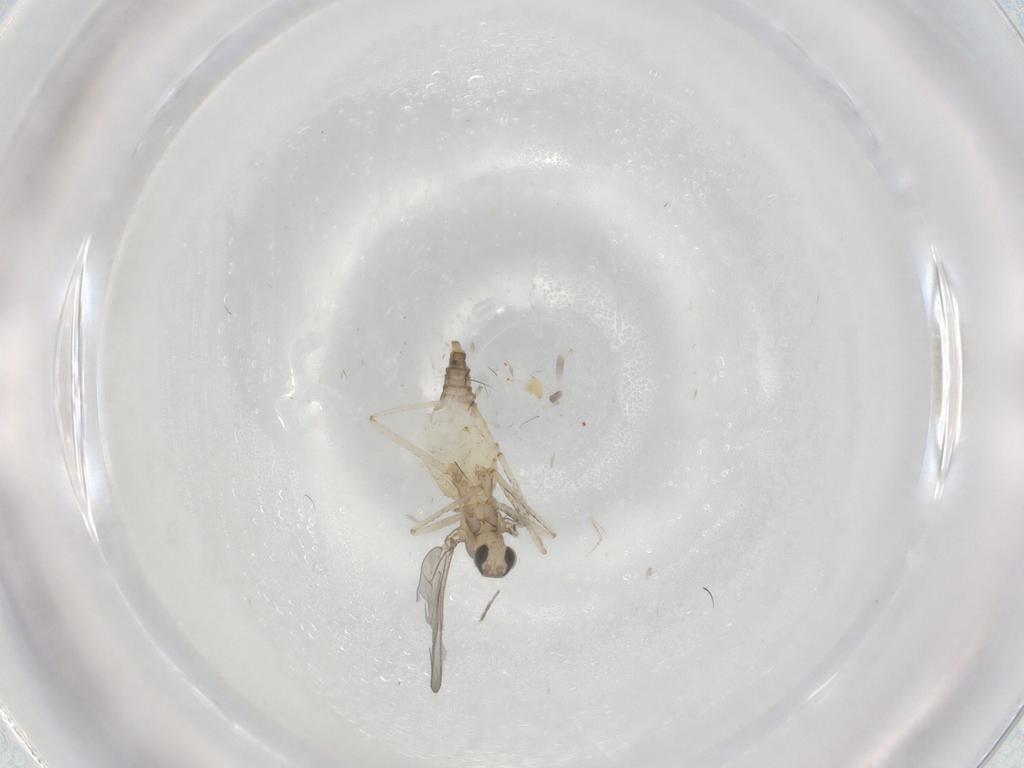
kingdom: Animalia
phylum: Arthropoda
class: Insecta
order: Diptera
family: Cecidomyiidae
